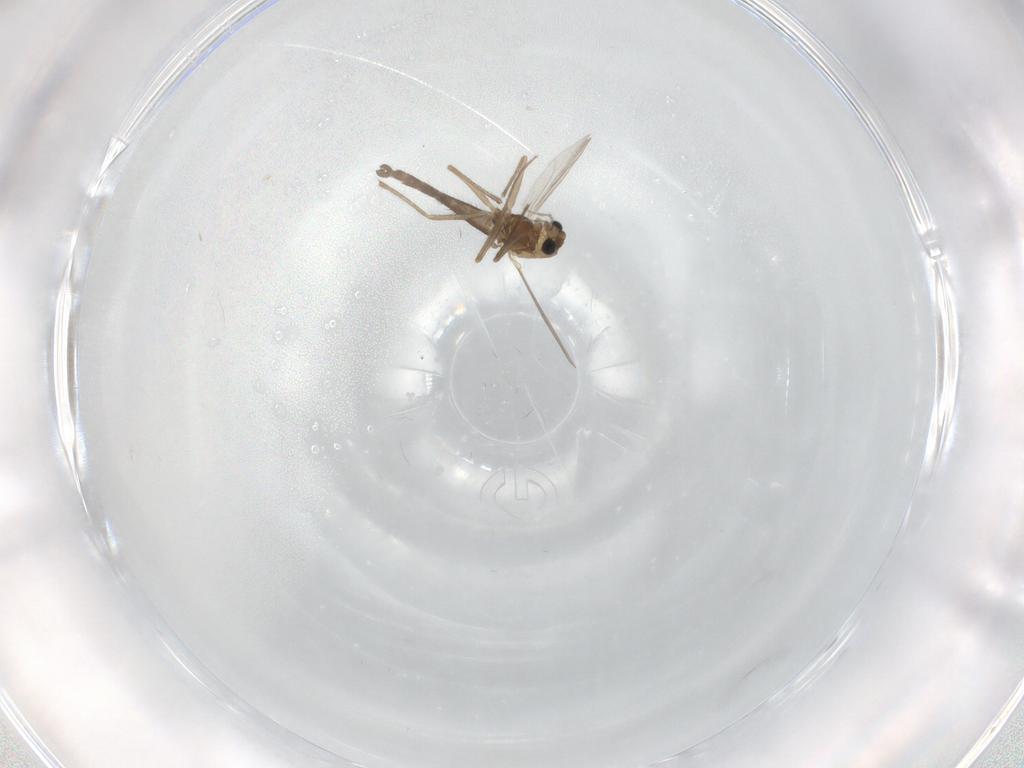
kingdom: Animalia
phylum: Arthropoda
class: Insecta
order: Diptera
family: Chironomidae
